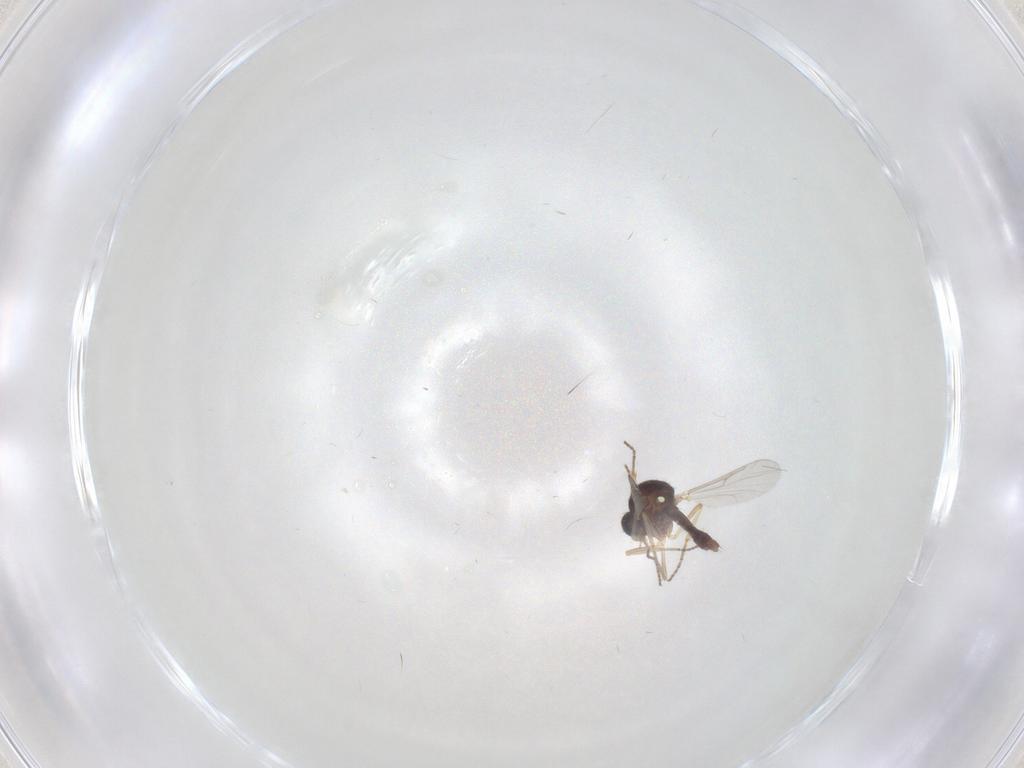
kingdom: Animalia
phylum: Arthropoda
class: Insecta
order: Diptera
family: Ceratopogonidae
